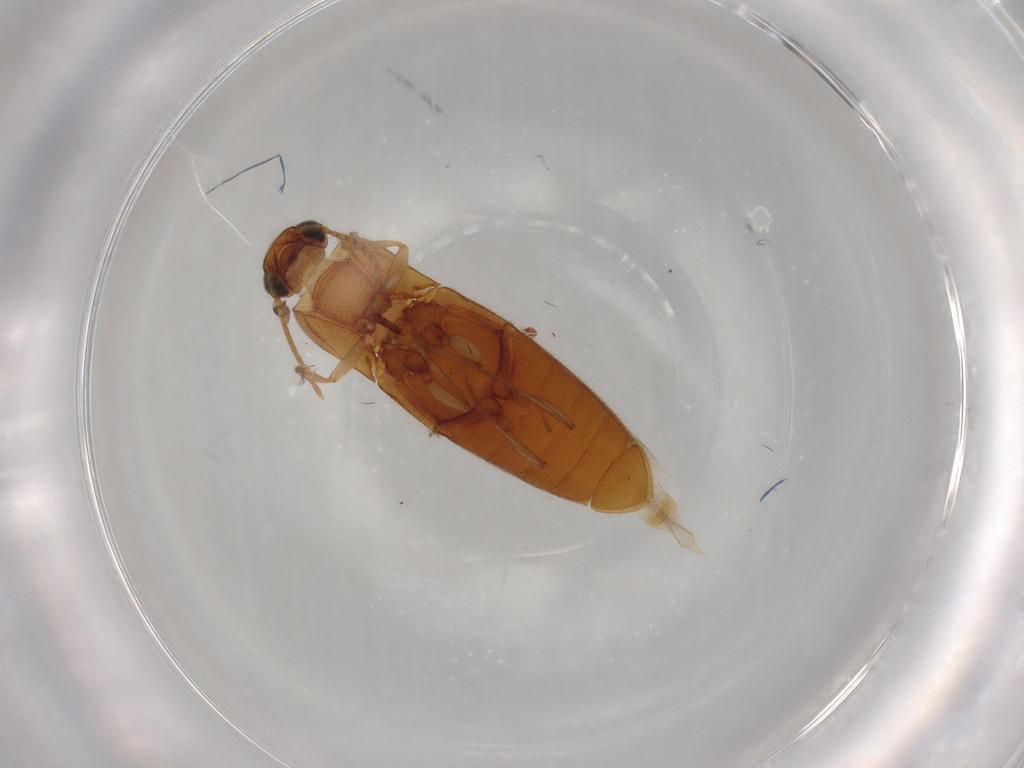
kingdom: Animalia
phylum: Arthropoda
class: Insecta
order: Coleoptera
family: Elateridae
